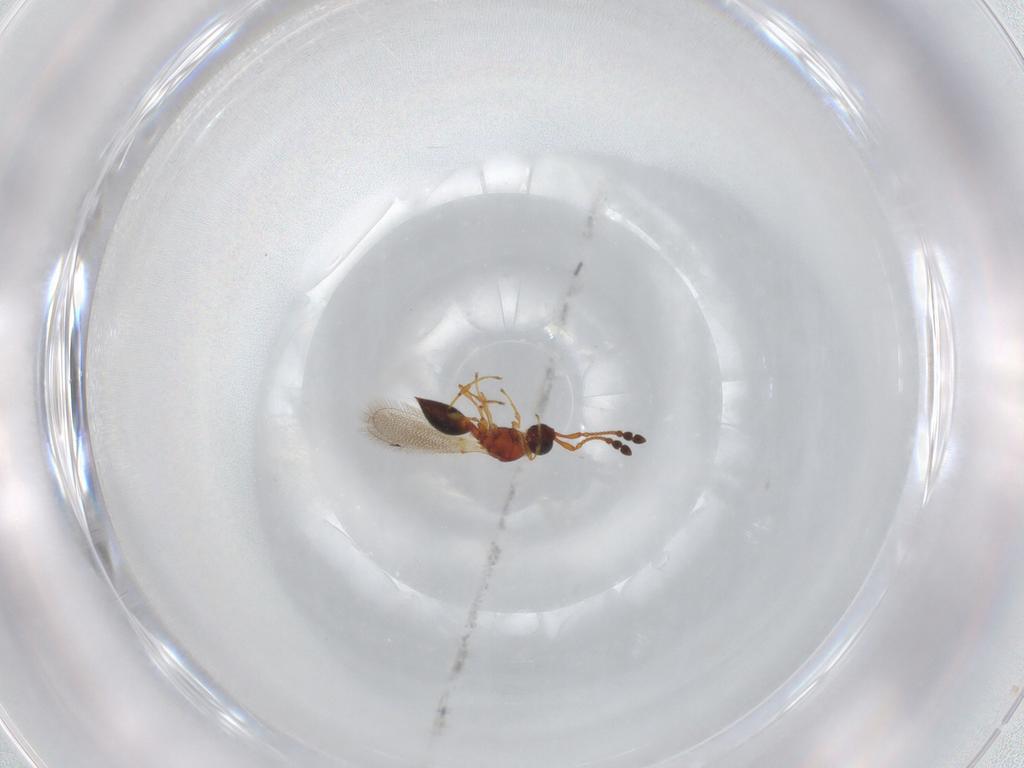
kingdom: Animalia
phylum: Arthropoda
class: Insecta
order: Hymenoptera
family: Diapriidae
